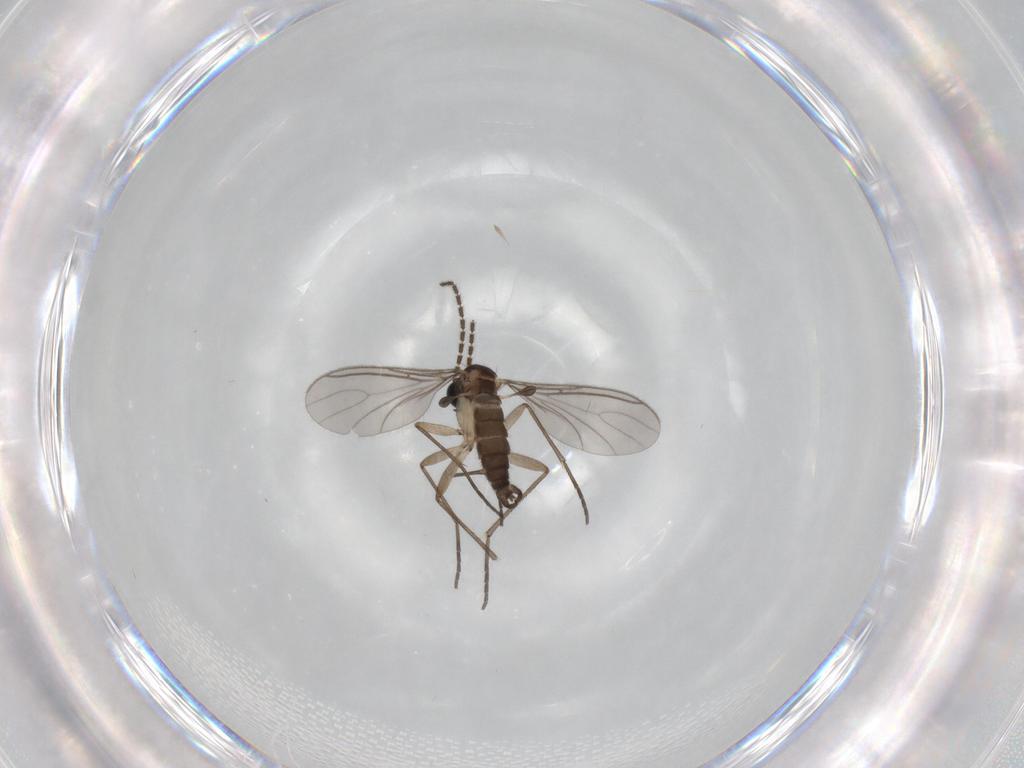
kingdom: Animalia
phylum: Arthropoda
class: Insecta
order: Diptera
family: Sciaridae
